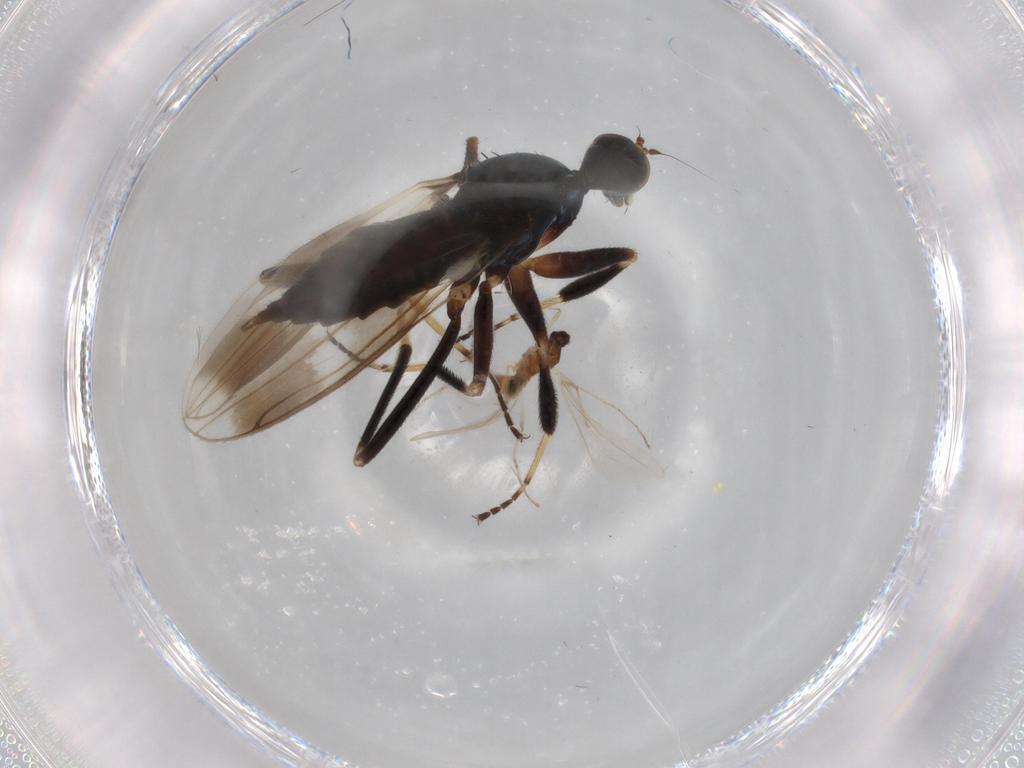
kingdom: Animalia
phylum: Arthropoda
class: Insecta
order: Diptera
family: Hybotidae
